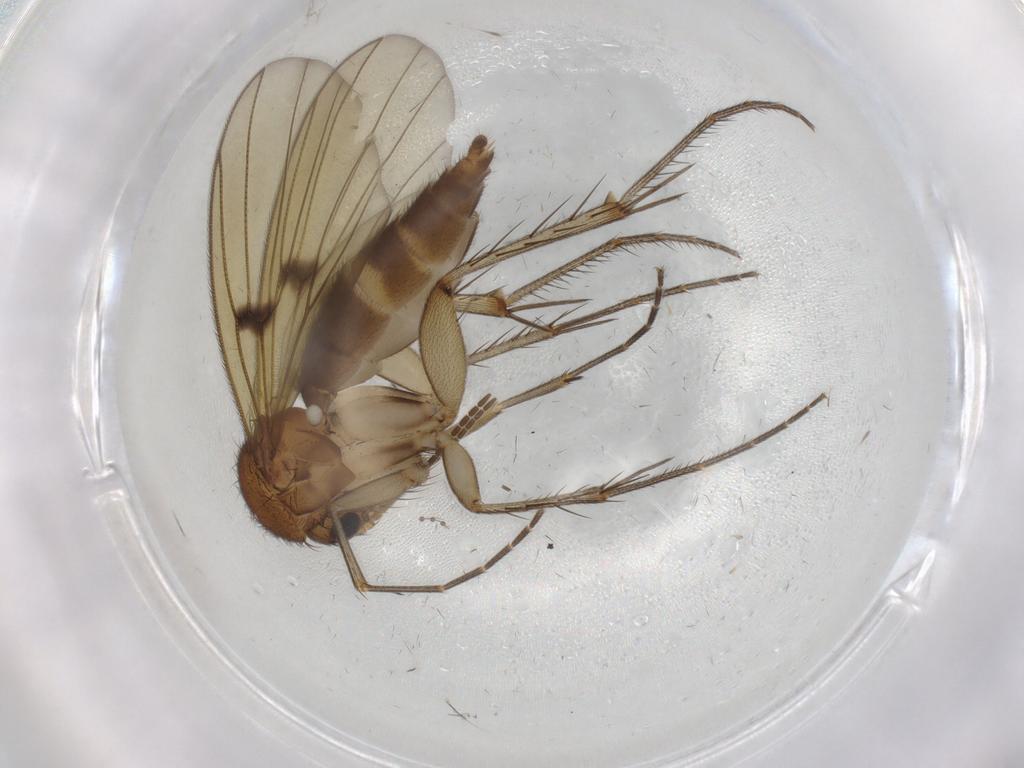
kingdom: Animalia
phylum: Arthropoda
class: Insecta
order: Diptera
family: Mycetophilidae
